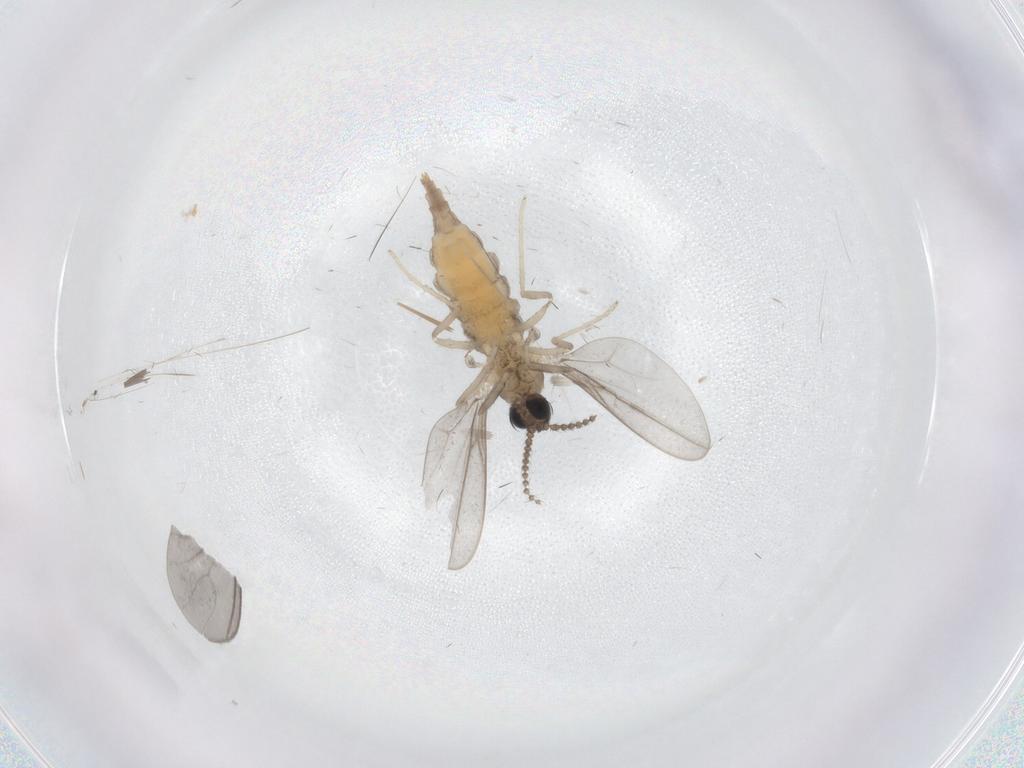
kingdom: Animalia
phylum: Arthropoda
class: Insecta
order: Diptera
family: Cecidomyiidae
